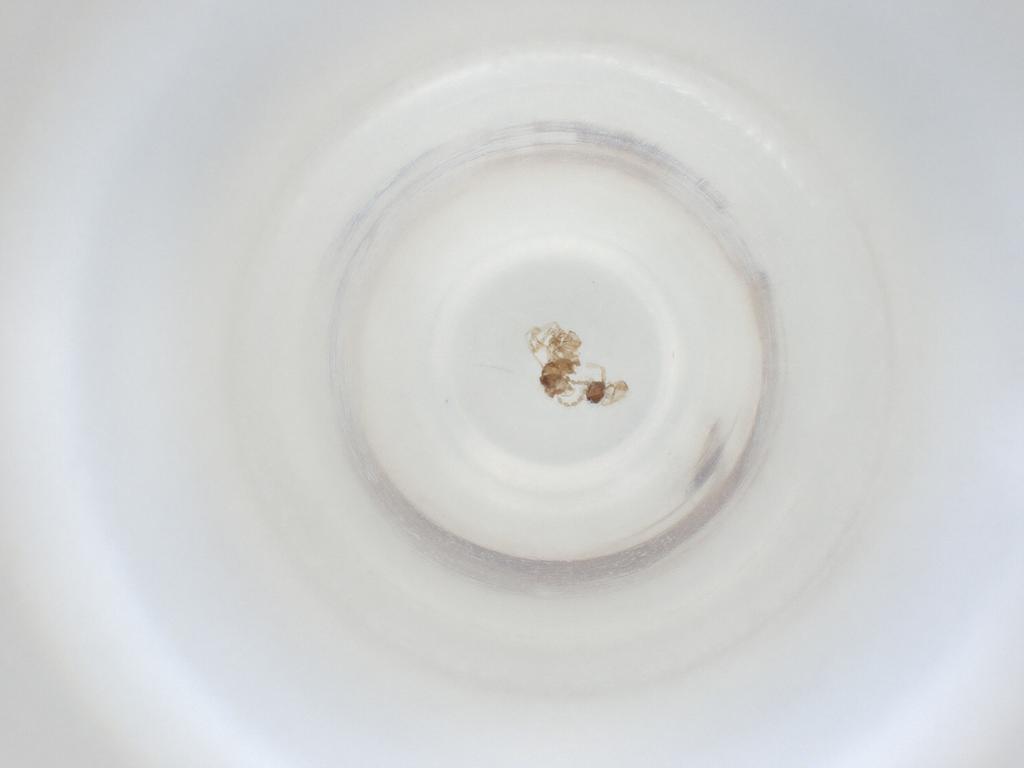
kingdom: Animalia
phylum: Arthropoda
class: Insecta
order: Diptera
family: Cecidomyiidae
